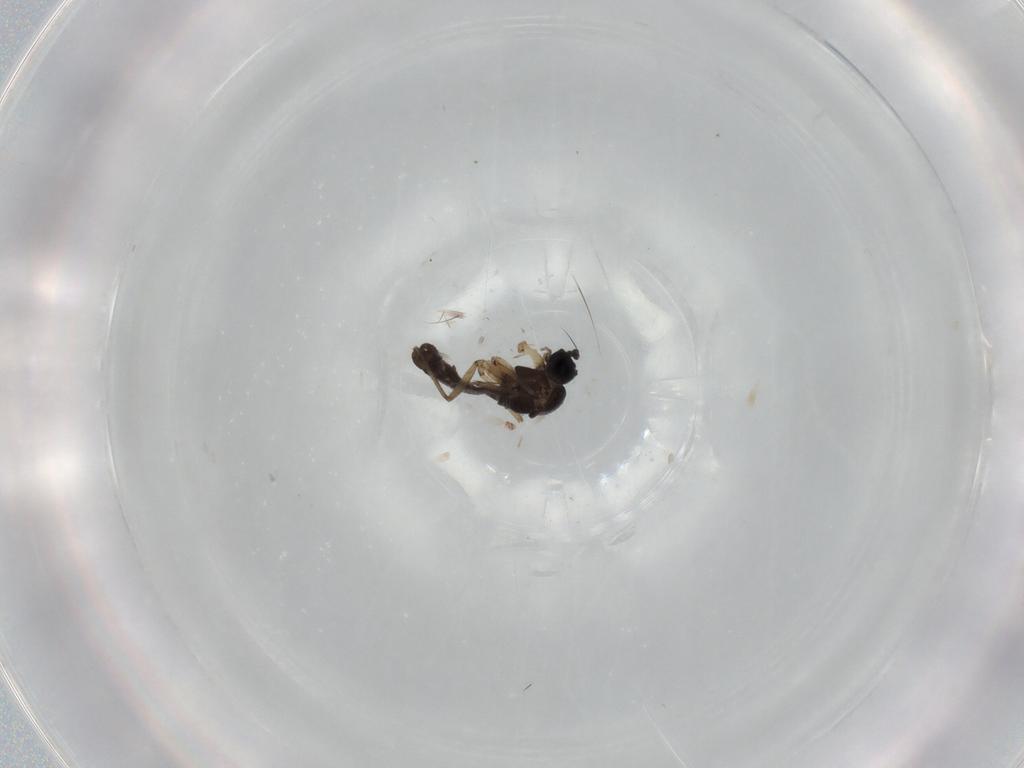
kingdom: Animalia
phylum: Arthropoda
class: Insecta
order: Diptera
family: Sciaridae
